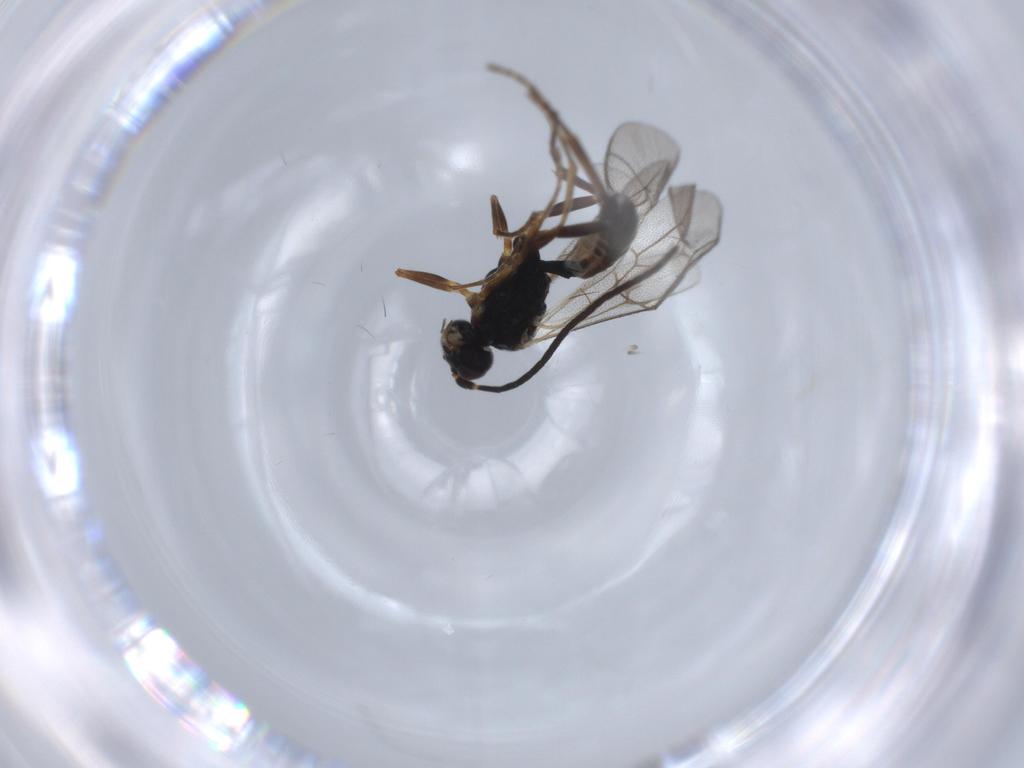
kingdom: Animalia
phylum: Arthropoda
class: Insecta
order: Hymenoptera
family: Ichneumonidae
